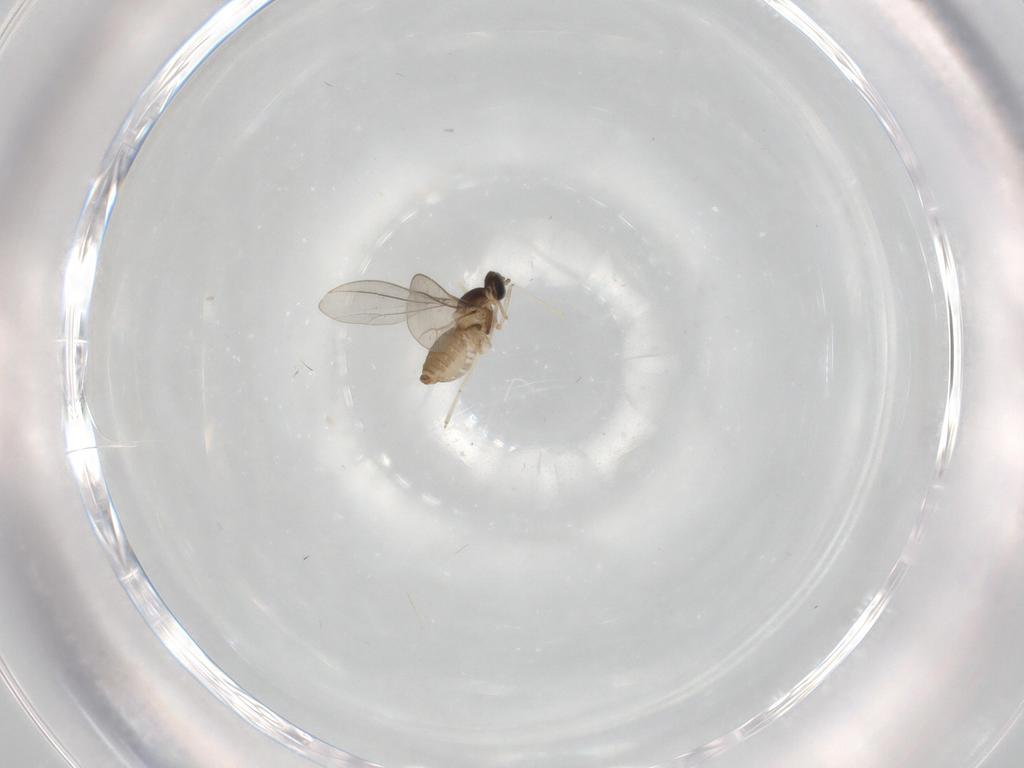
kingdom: Animalia
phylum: Arthropoda
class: Insecta
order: Diptera
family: Cecidomyiidae
